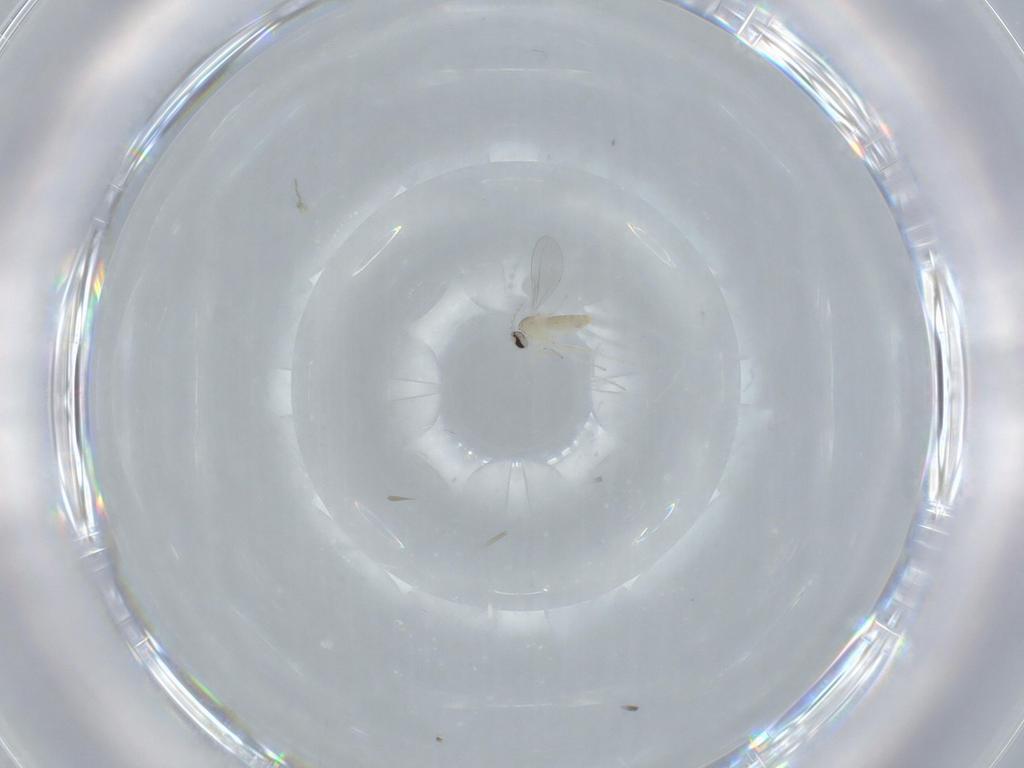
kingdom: Animalia
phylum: Arthropoda
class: Insecta
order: Diptera
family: Cecidomyiidae
